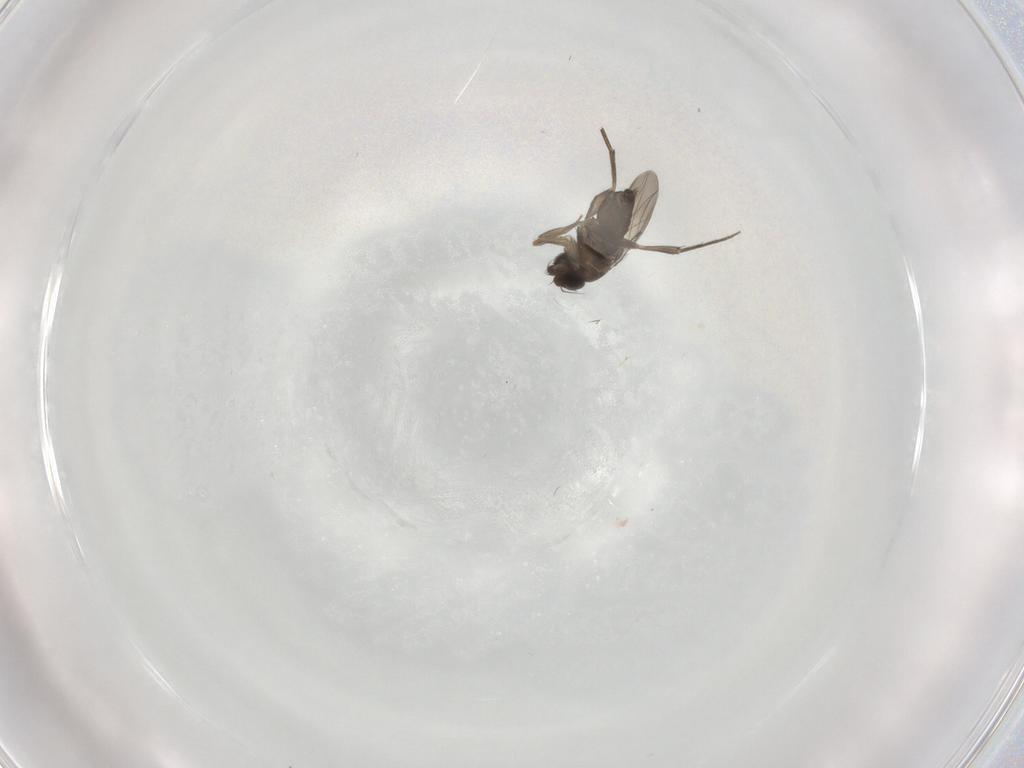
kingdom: Animalia
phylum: Arthropoda
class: Insecta
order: Diptera
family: Phoridae
